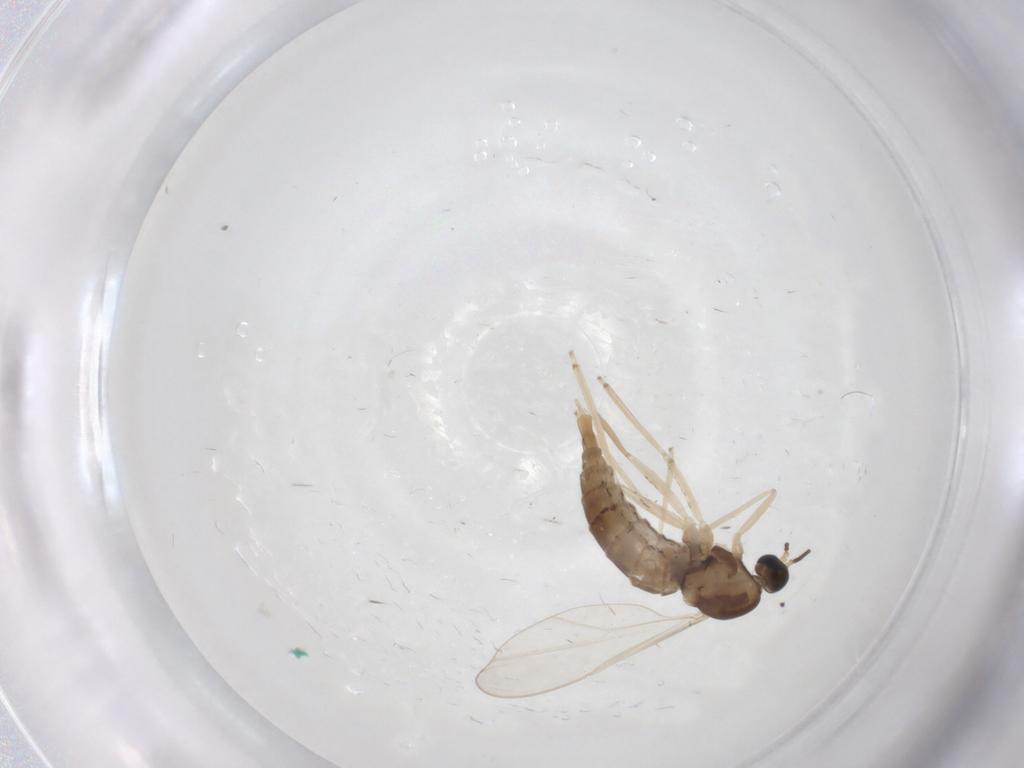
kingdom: Animalia
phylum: Arthropoda
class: Insecta
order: Diptera
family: Cecidomyiidae
